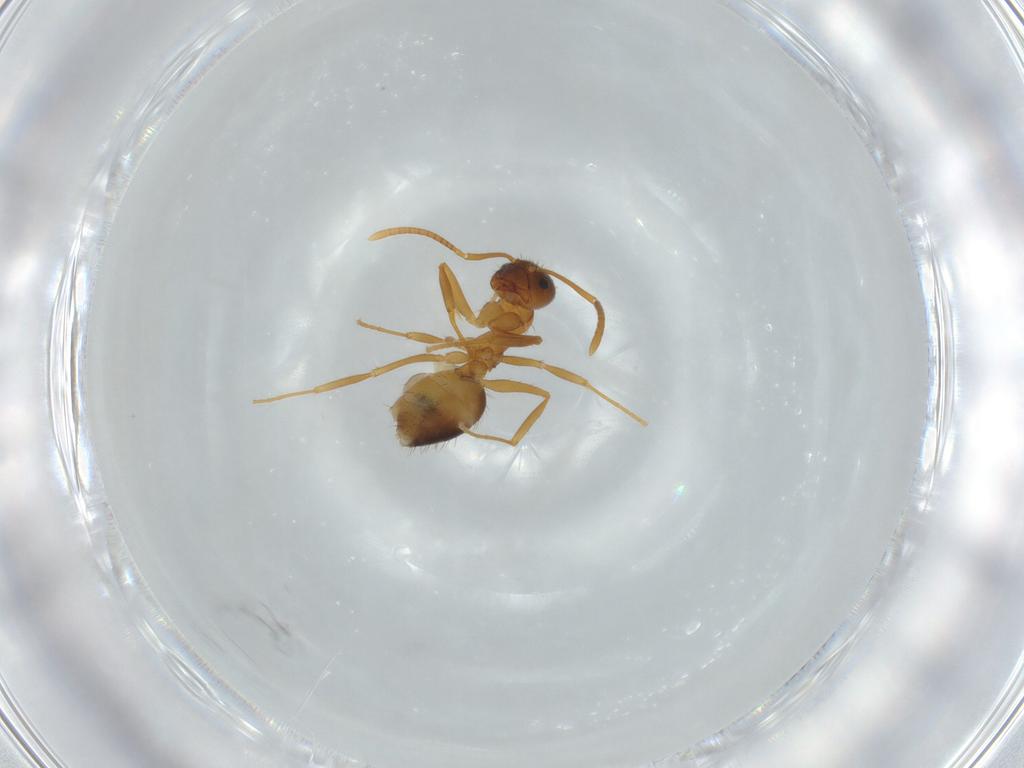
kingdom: Animalia
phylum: Arthropoda
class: Insecta
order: Hymenoptera
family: Formicidae
